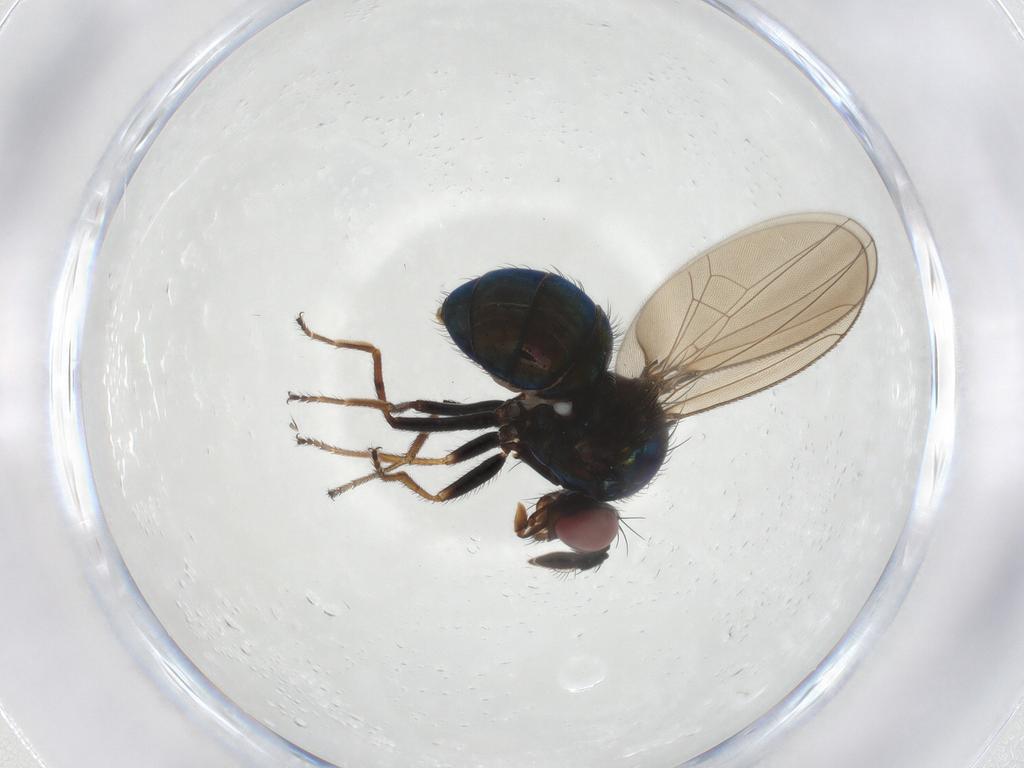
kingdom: Animalia
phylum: Arthropoda
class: Insecta
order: Diptera
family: Ephydridae
